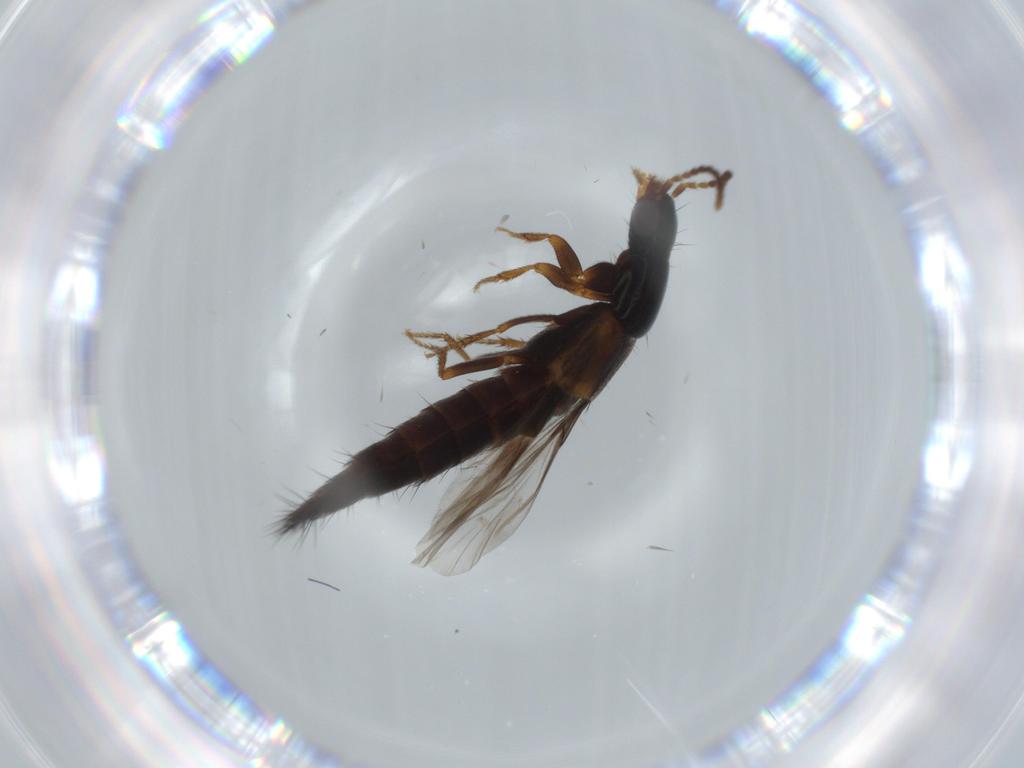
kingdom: Animalia
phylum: Arthropoda
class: Insecta
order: Coleoptera
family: Staphylinidae
